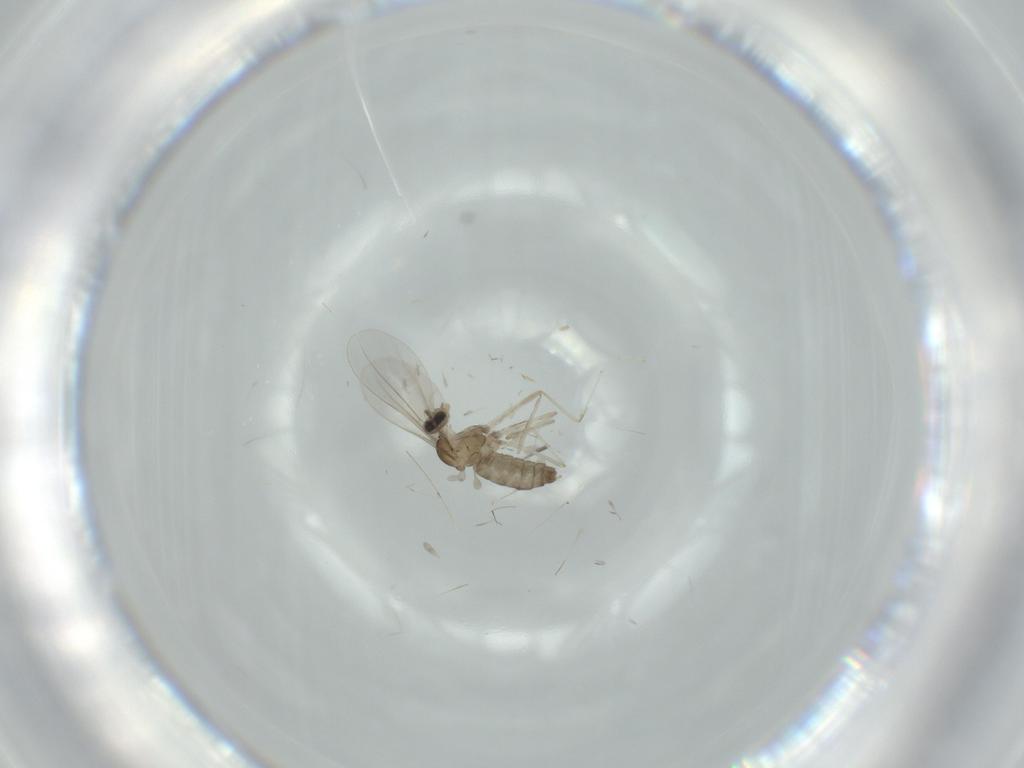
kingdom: Animalia
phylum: Arthropoda
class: Insecta
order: Diptera
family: Cecidomyiidae
